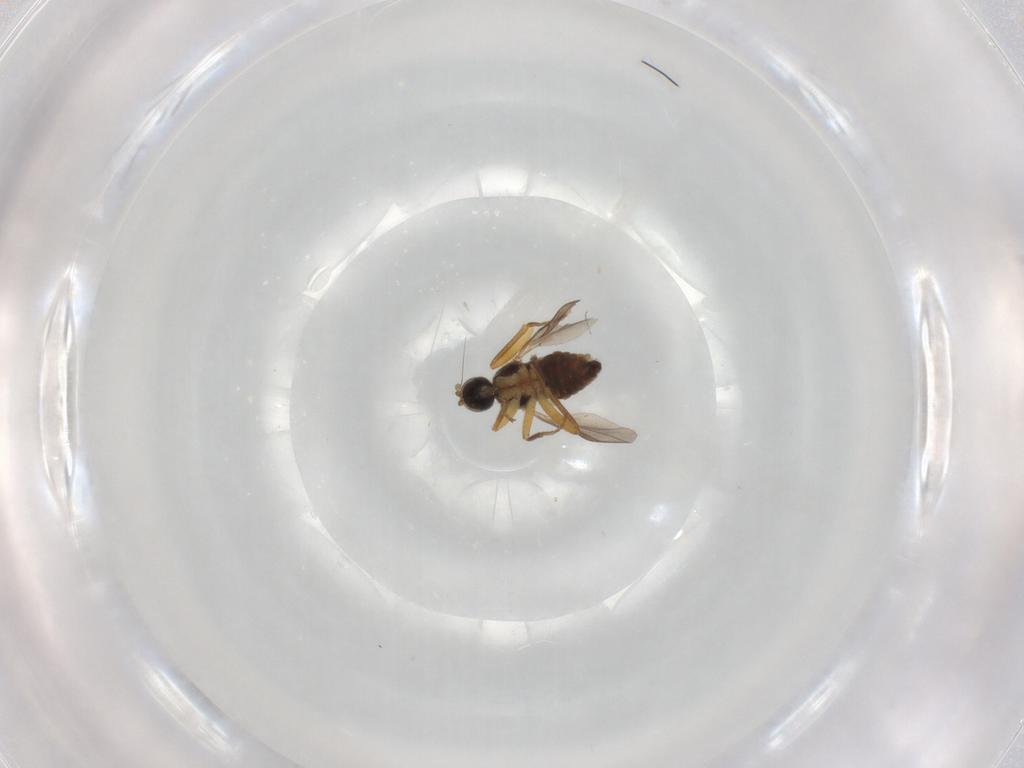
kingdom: Animalia
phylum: Arthropoda
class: Insecta
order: Diptera
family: Hybotidae
